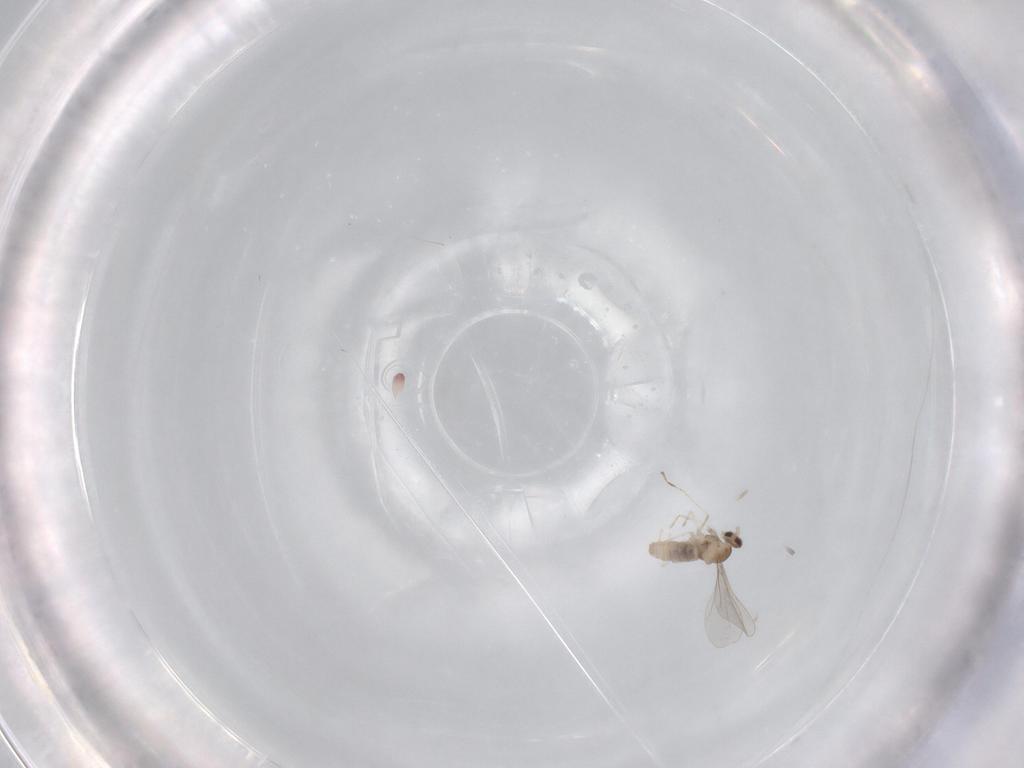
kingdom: Animalia
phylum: Arthropoda
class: Insecta
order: Diptera
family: Cecidomyiidae
